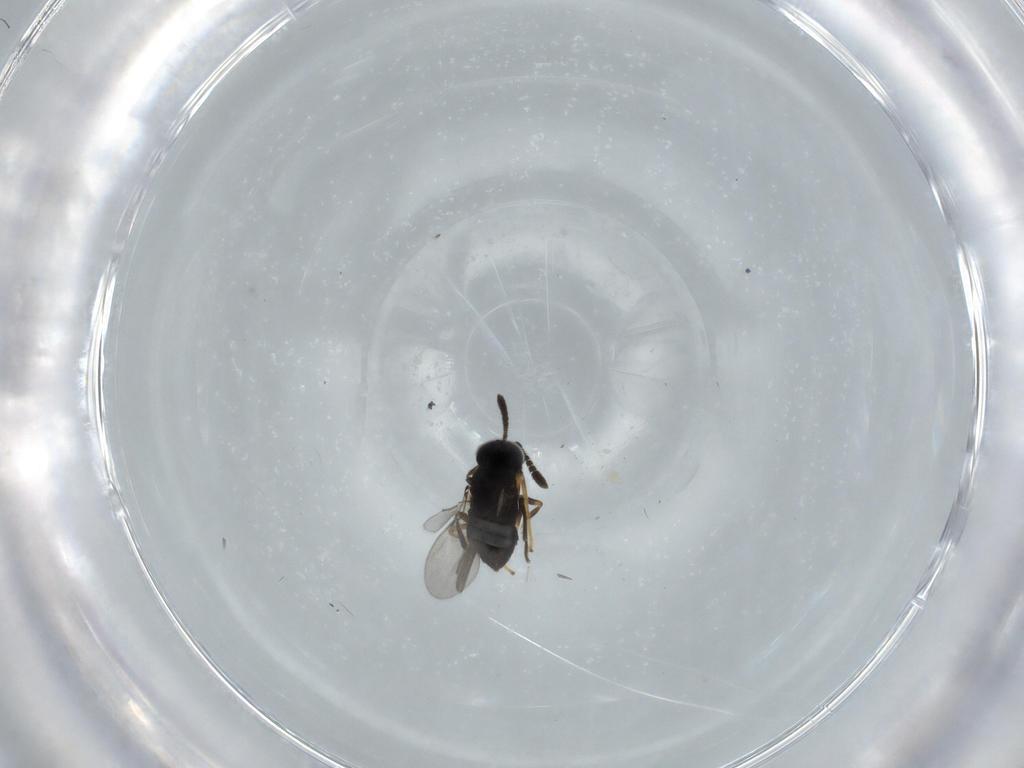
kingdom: Animalia
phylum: Arthropoda
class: Insecta
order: Hymenoptera
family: Encyrtidae
